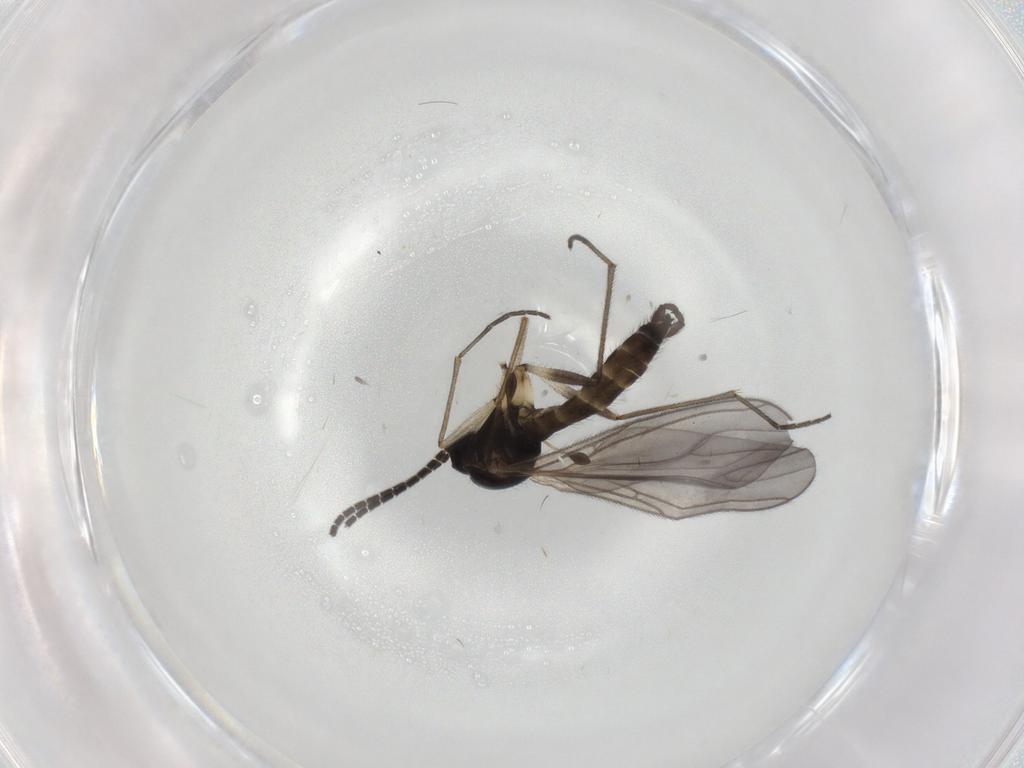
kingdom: Animalia
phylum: Arthropoda
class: Insecta
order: Diptera
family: Sciaridae
